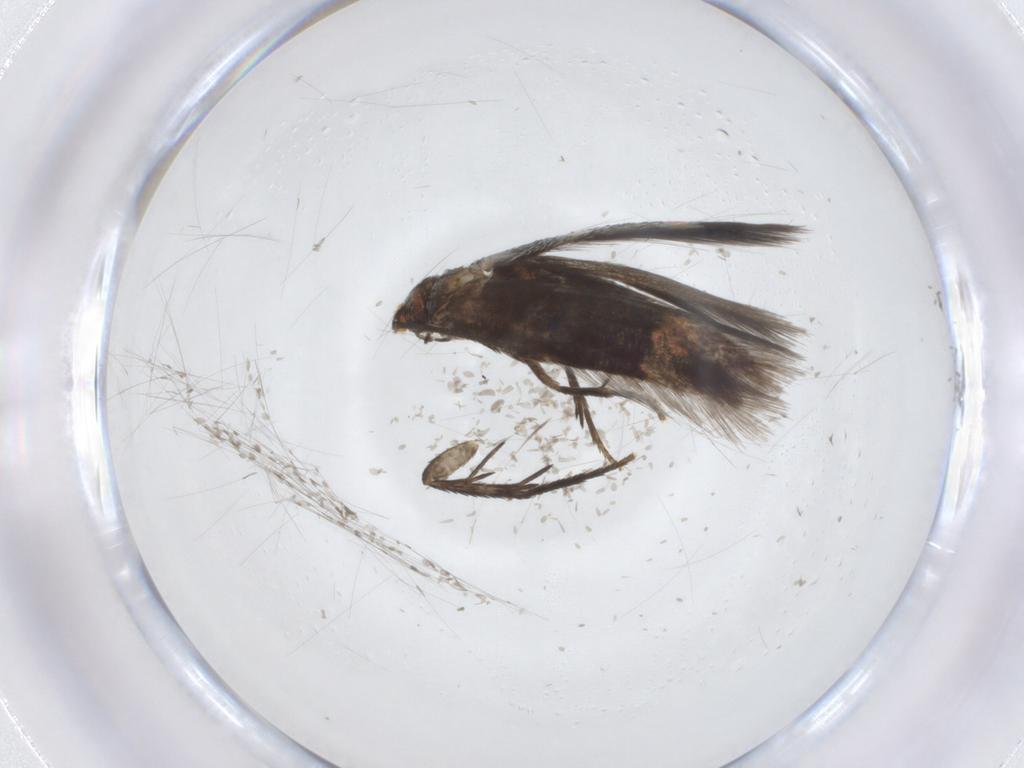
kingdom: Animalia
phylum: Arthropoda
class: Insecta
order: Lepidoptera
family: Nepticulidae
